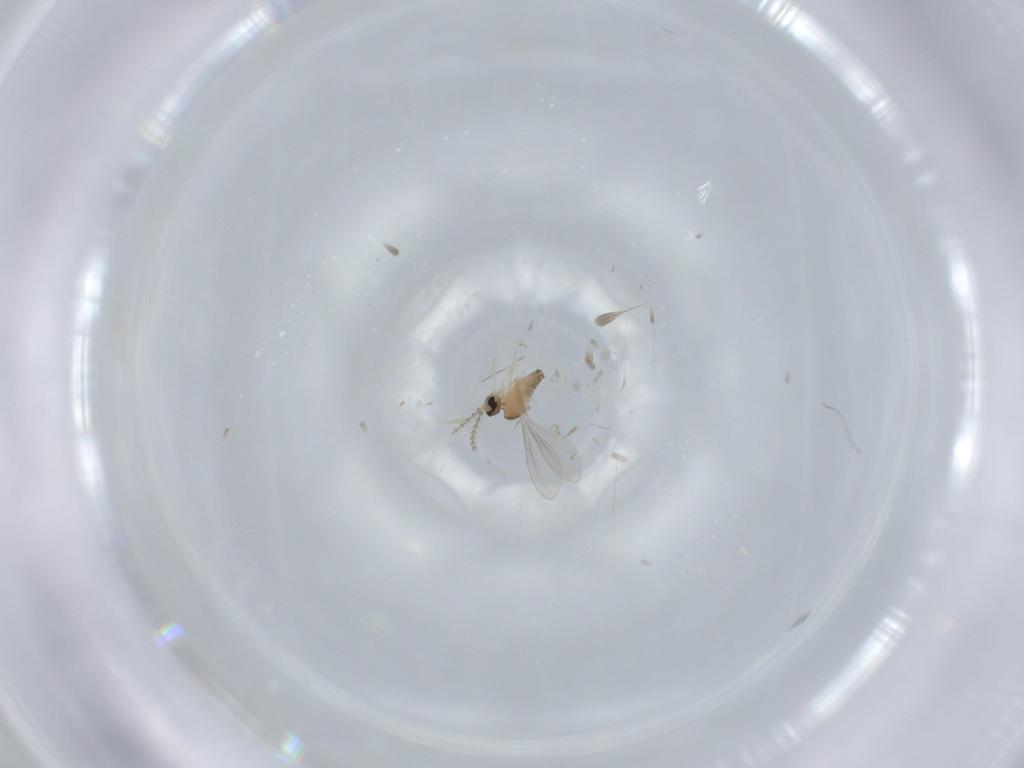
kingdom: Animalia
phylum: Arthropoda
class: Insecta
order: Diptera
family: Cecidomyiidae
